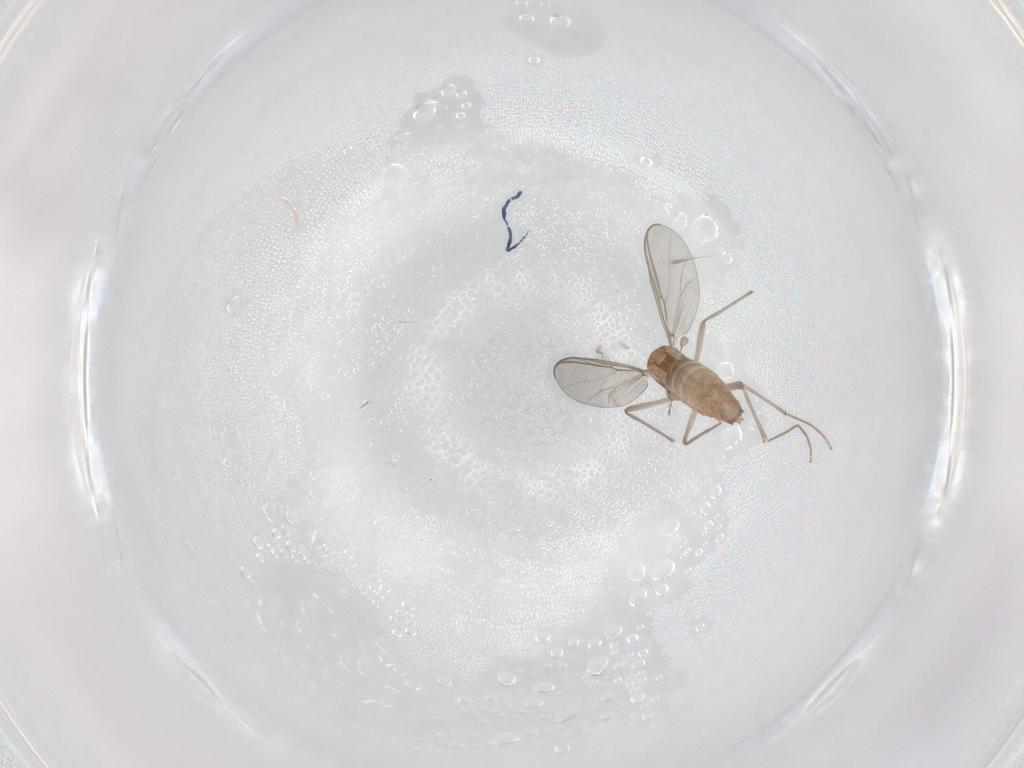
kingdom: Animalia
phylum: Arthropoda
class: Insecta
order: Diptera
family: Chironomidae
